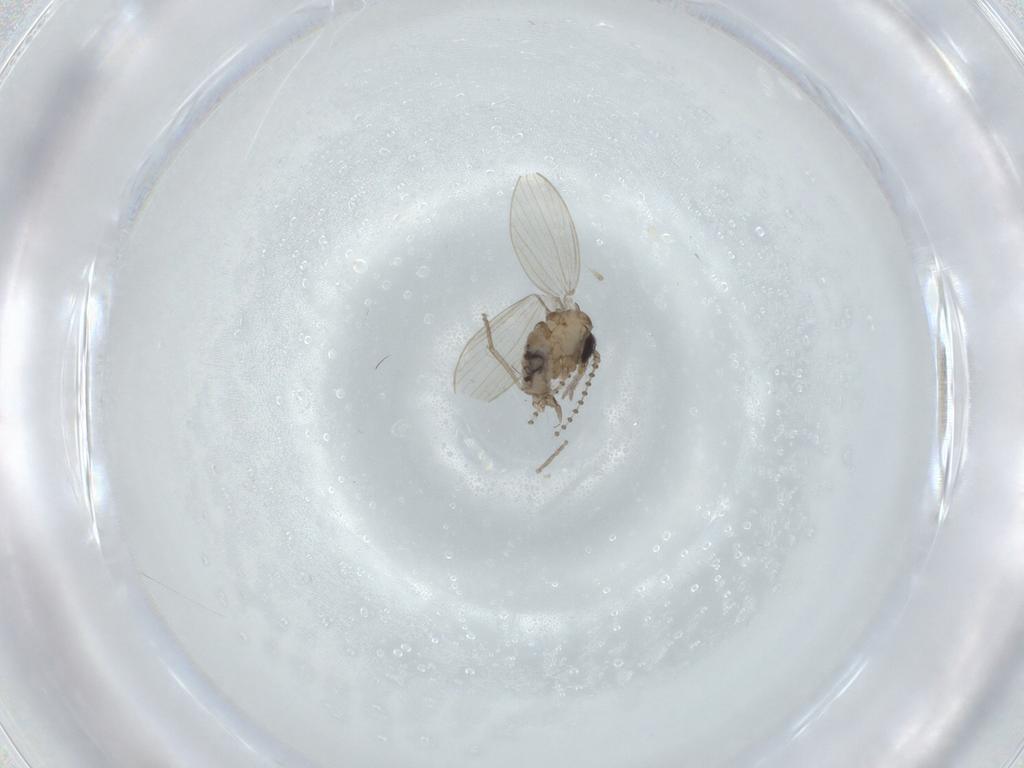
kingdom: Animalia
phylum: Arthropoda
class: Insecta
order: Diptera
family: Psychodidae
